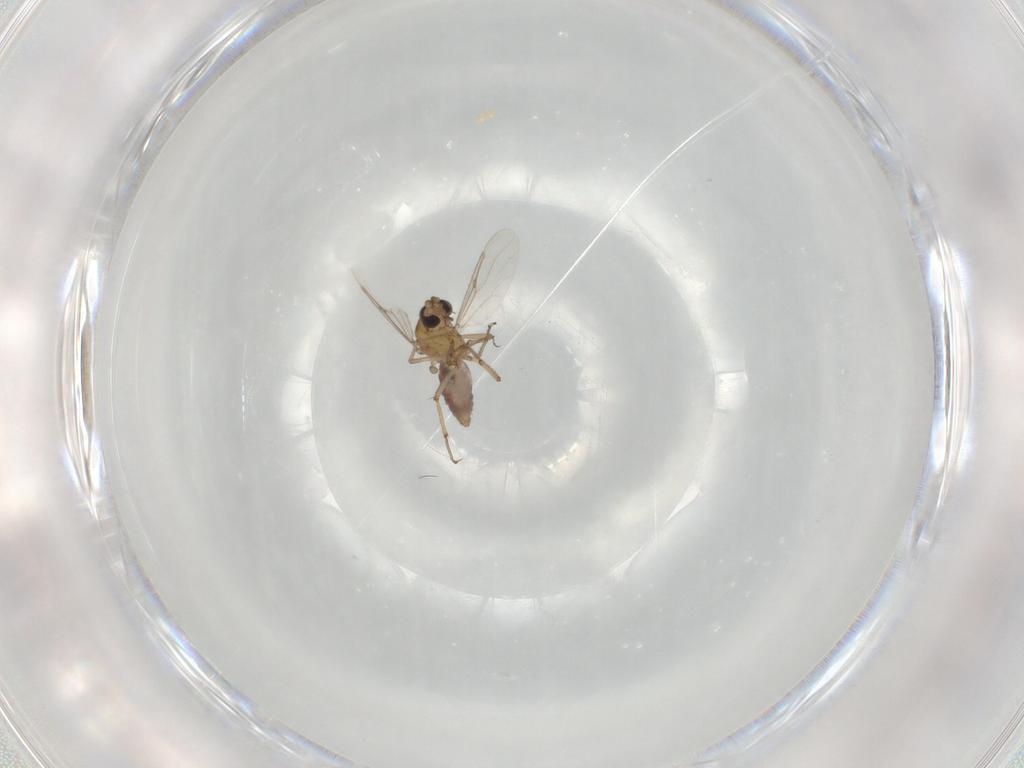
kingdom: Animalia
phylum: Arthropoda
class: Insecta
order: Diptera
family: Ceratopogonidae
